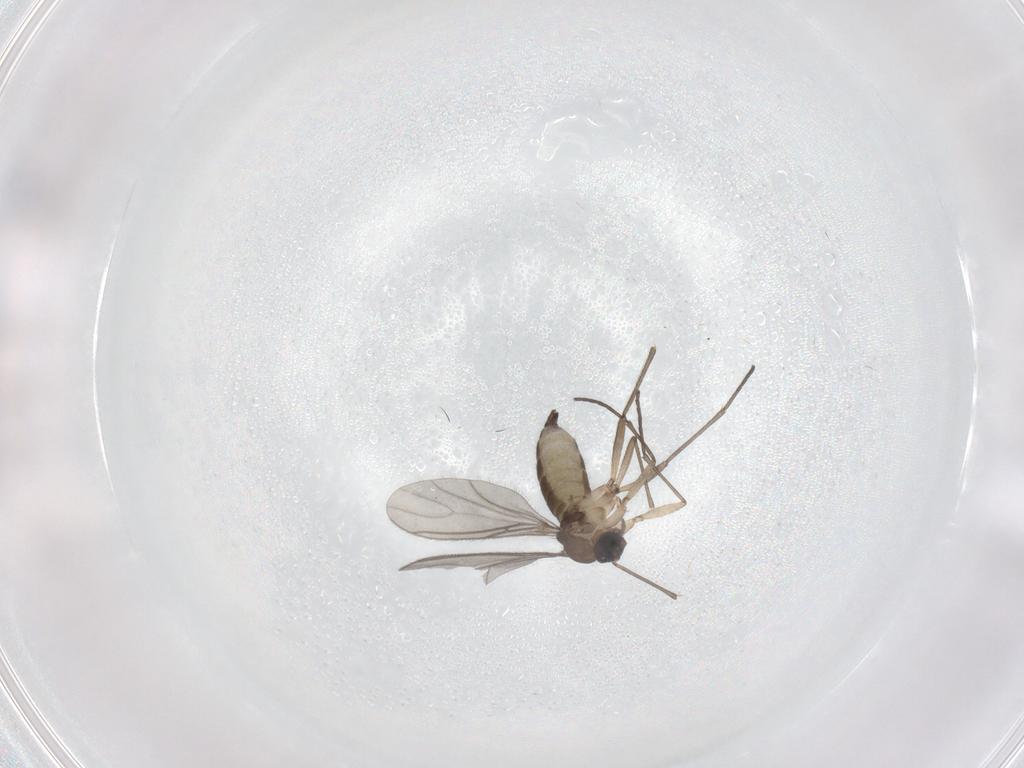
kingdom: Animalia
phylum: Arthropoda
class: Insecta
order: Diptera
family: Sciaridae
